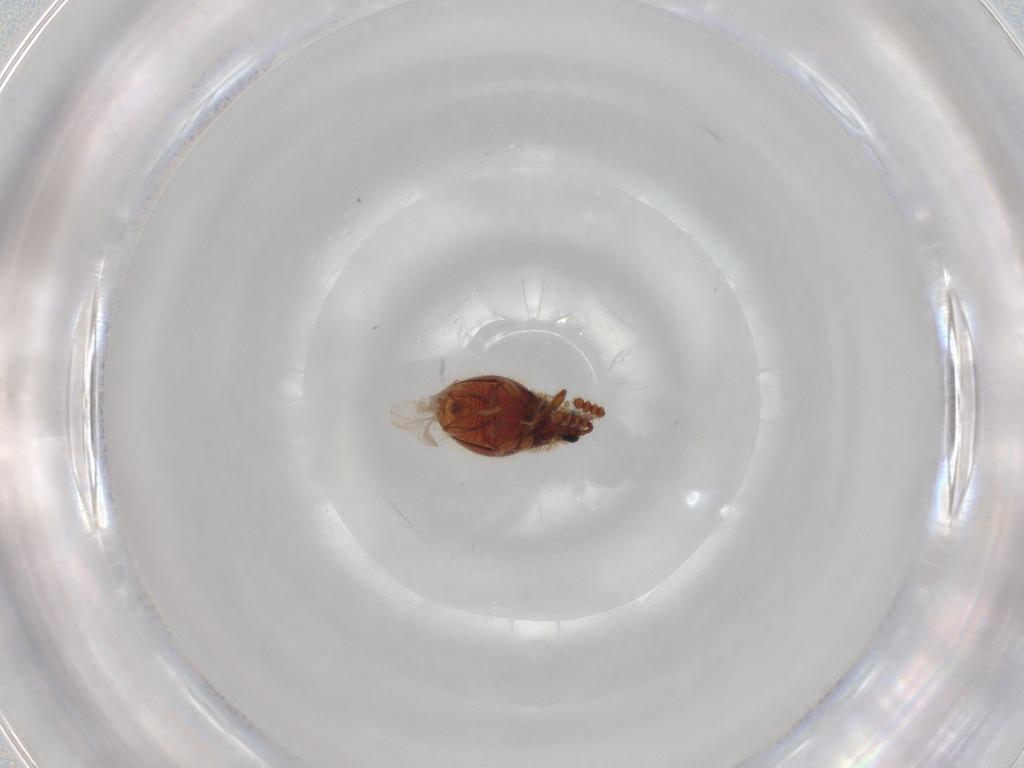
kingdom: Animalia
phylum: Arthropoda
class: Insecta
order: Coleoptera
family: Staphylinidae
